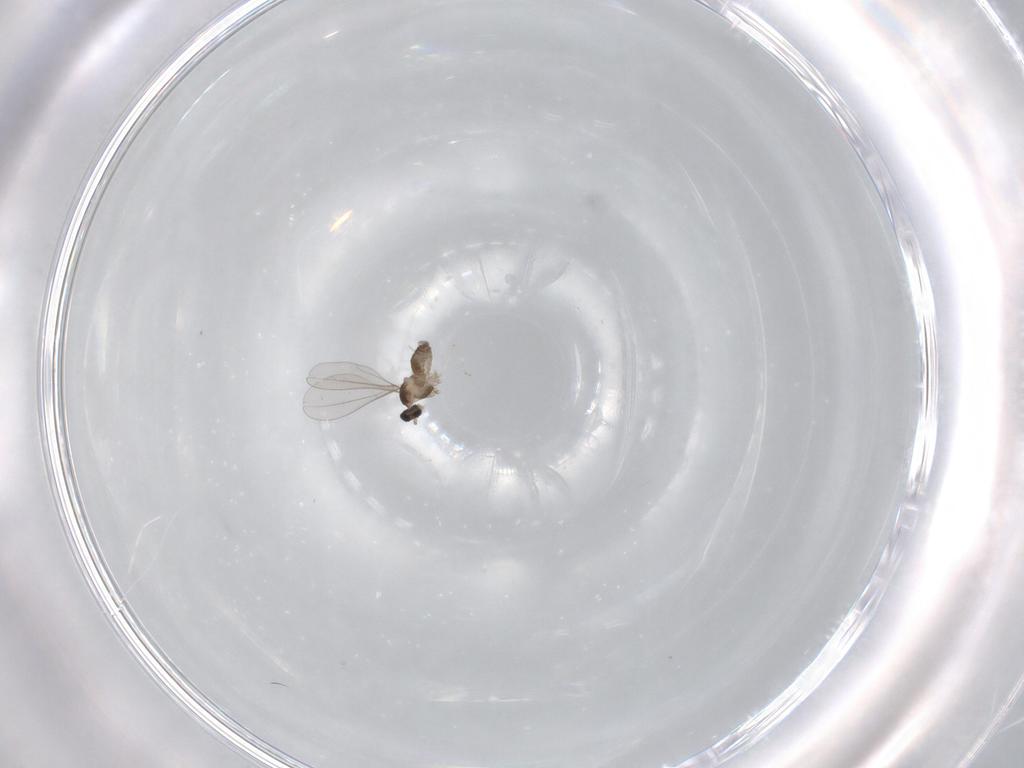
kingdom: Animalia
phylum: Arthropoda
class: Insecta
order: Diptera
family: Cecidomyiidae
